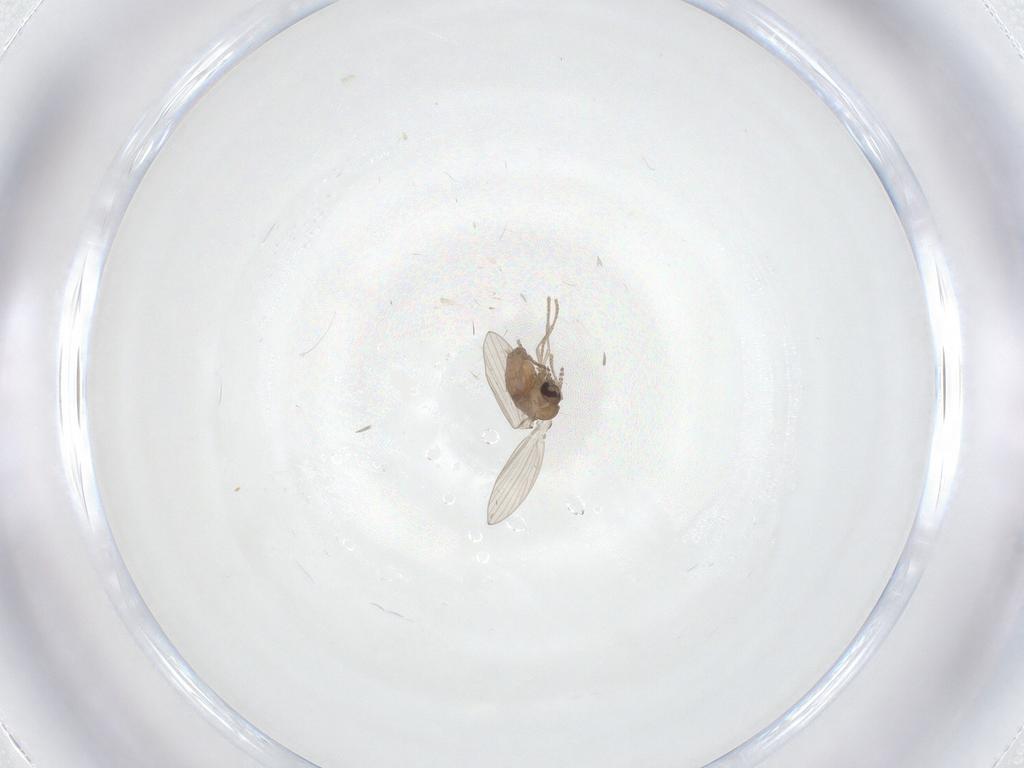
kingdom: Animalia
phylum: Arthropoda
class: Insecta
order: Diptera
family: Psychodidae
